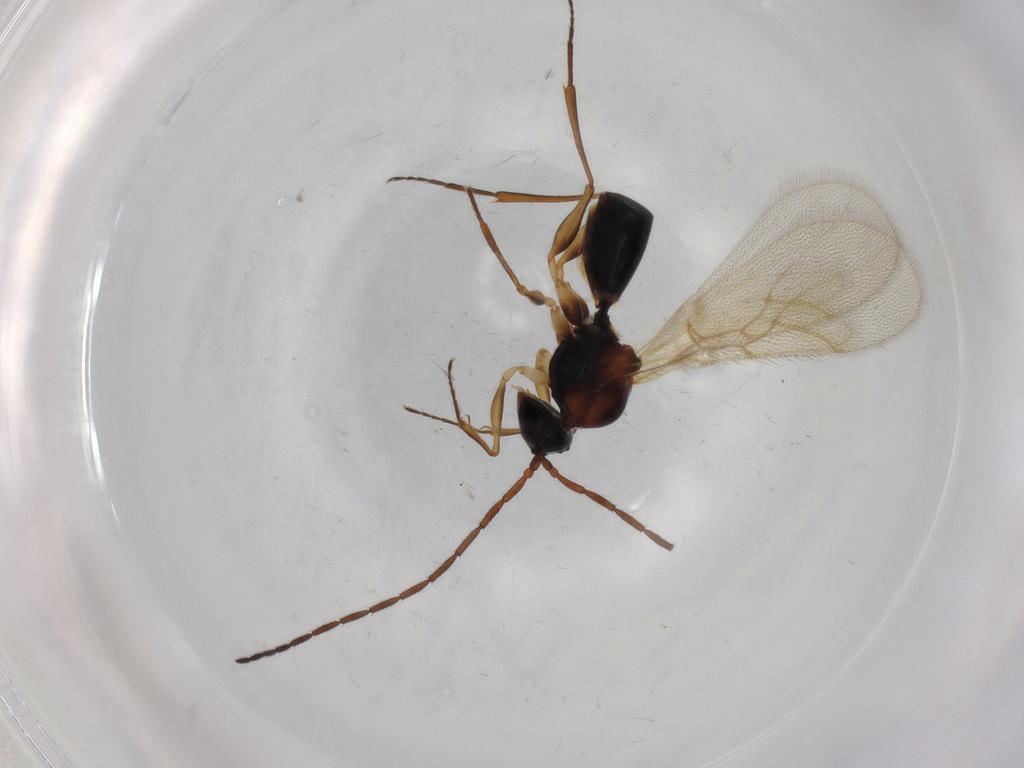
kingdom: Animalia
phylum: Arthropoda
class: Insecta
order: Hymenoptera
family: Figitidae
